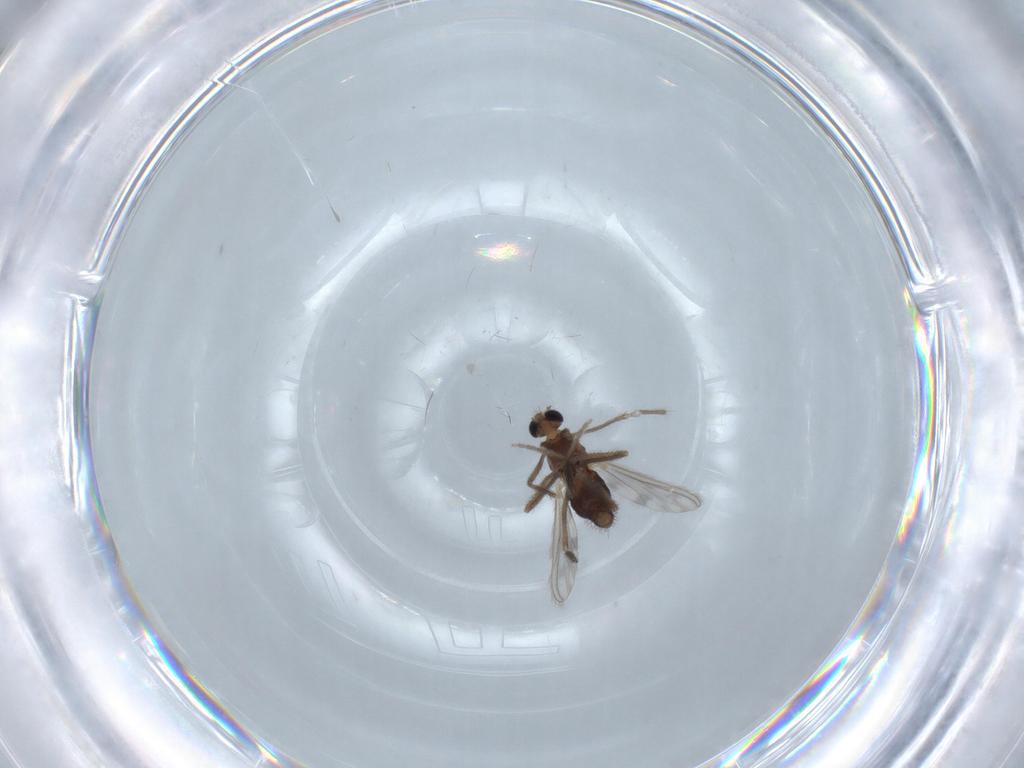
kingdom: Animalia
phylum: Arthropoda
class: Insecta
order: Diptera
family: Chironomidae
